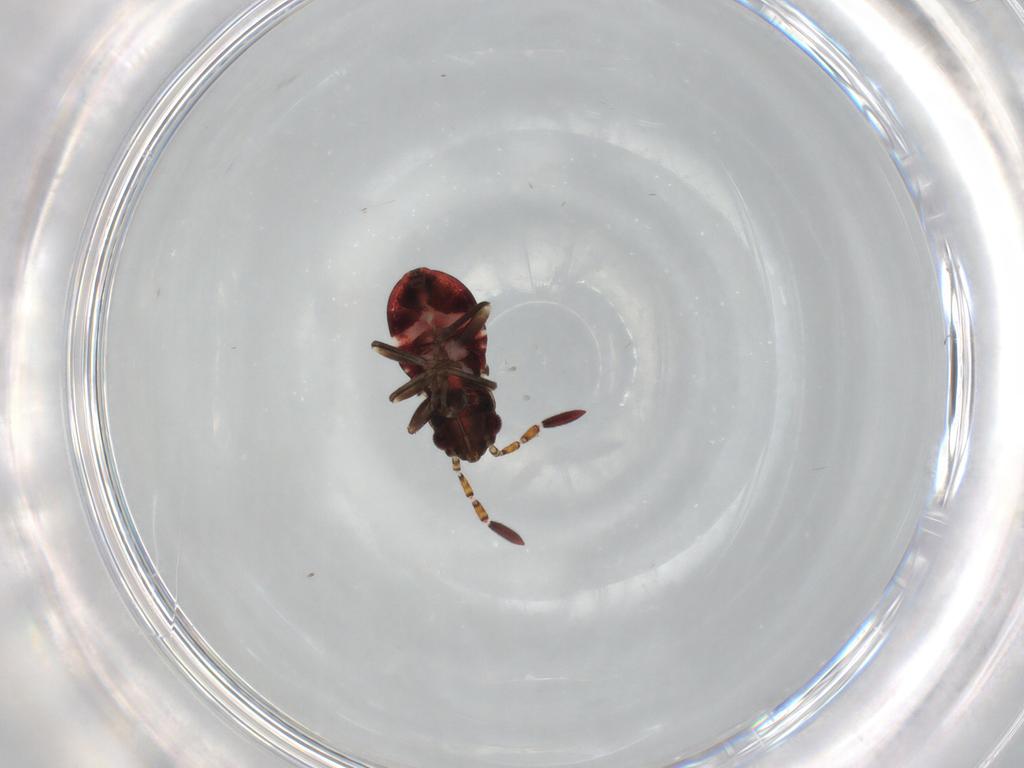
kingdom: Animalia
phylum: Arthropoda
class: Insecta
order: Hemiptera
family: Rhyparochromidae
